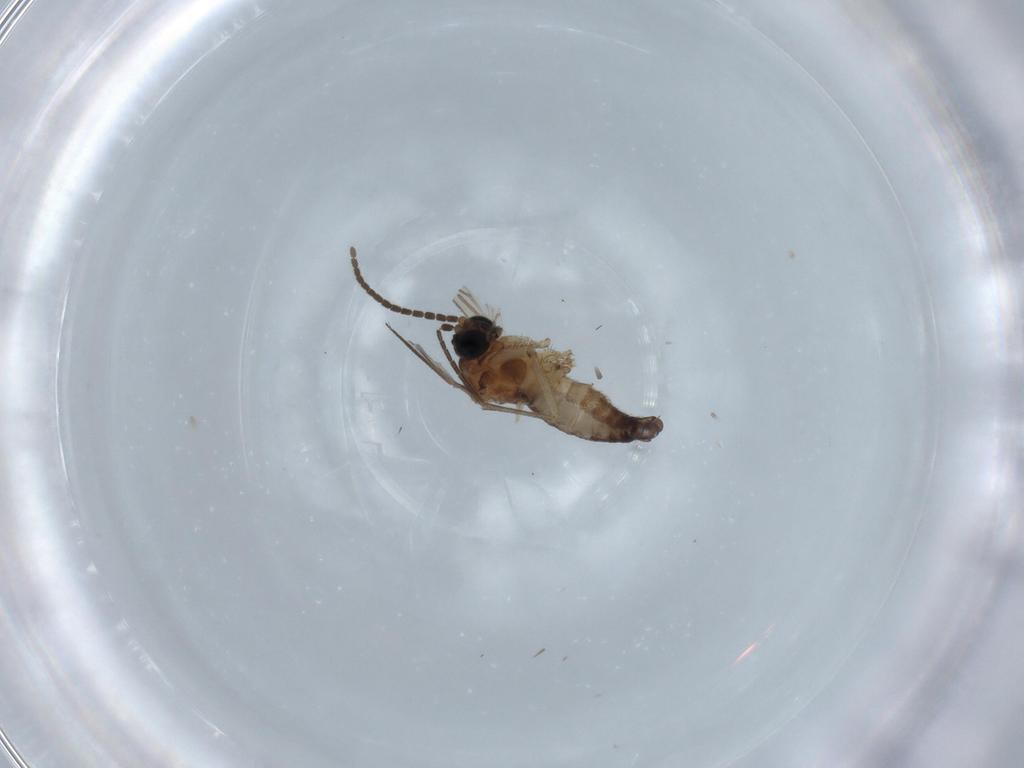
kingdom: Animalia
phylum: Arthropoda
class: Insecta
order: Diptera
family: Sciaridae
